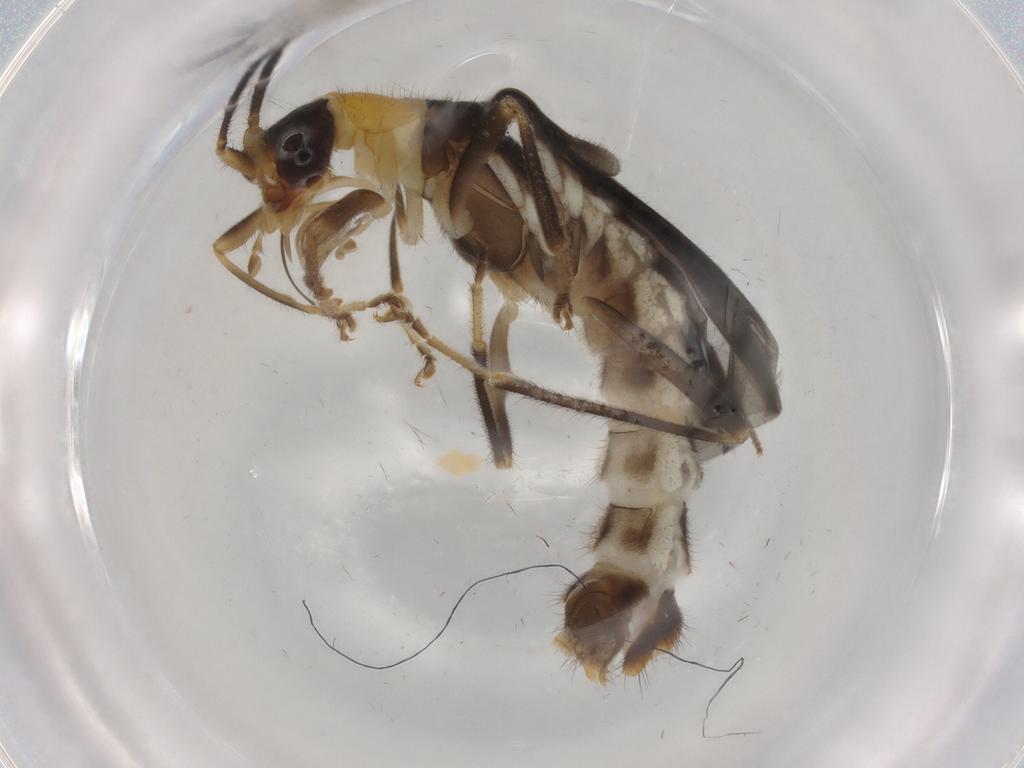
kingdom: Animalia
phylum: Arthropoda
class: Insecta
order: Coleoptera
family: Cantharidae
